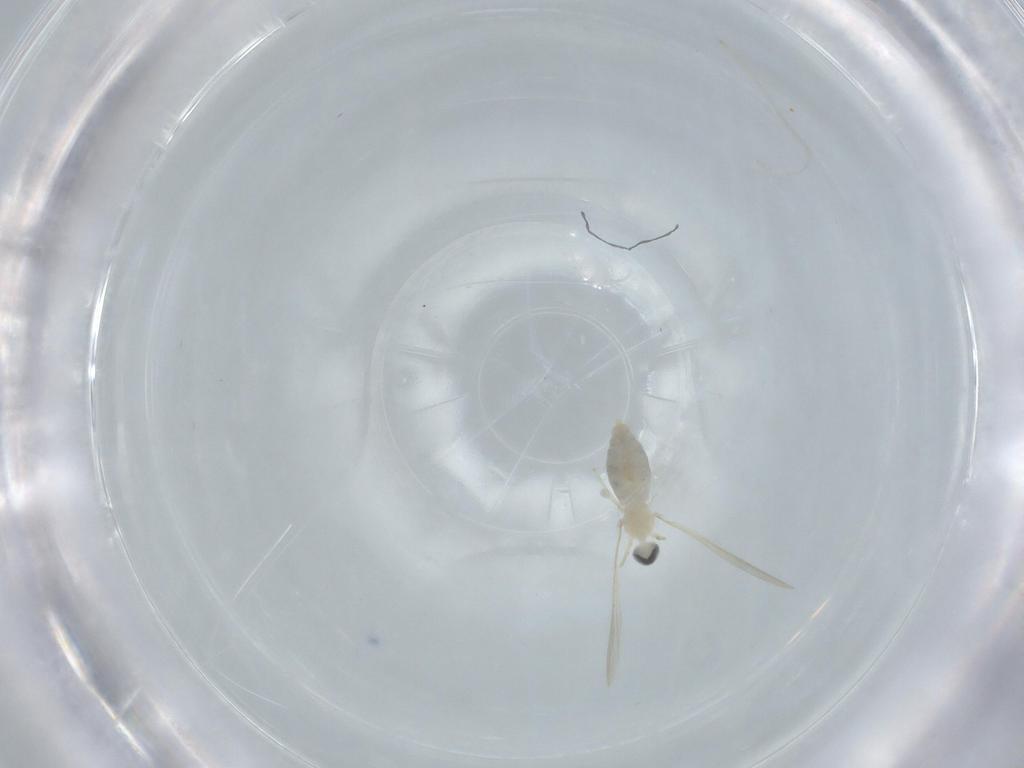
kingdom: Animalia
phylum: Arthropoda
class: Insecta
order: Diptera
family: Cecidomyiidae
